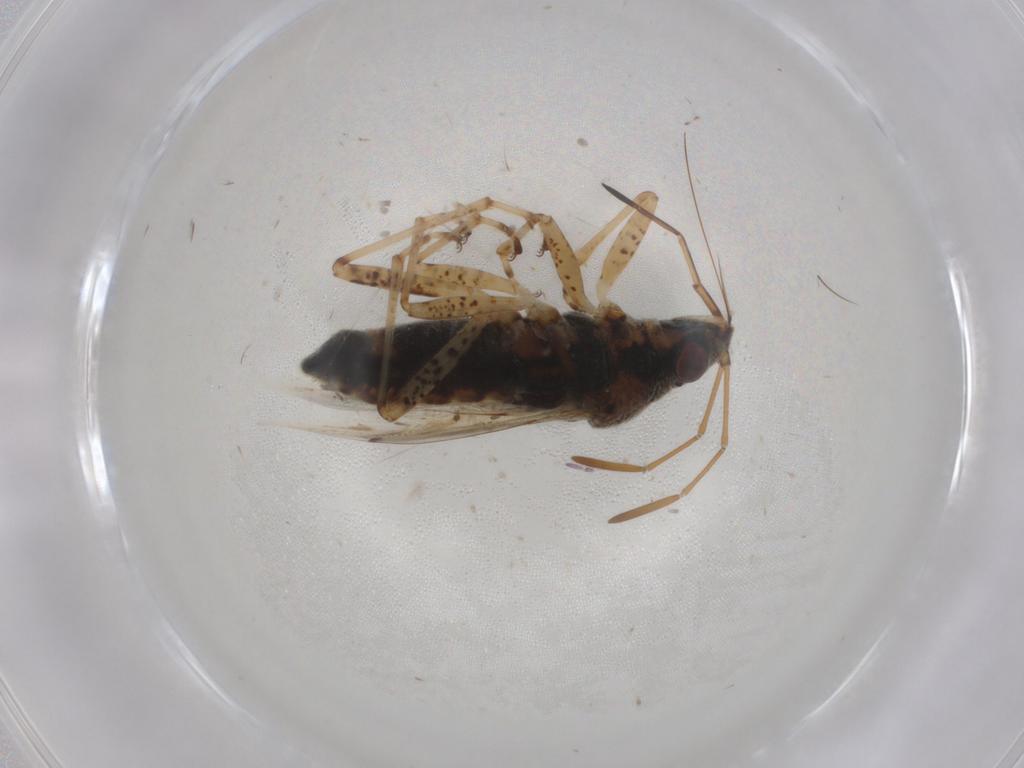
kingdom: Animalia
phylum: Arthropoda
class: Insecta
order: Hemiptera
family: Lygaeidae
